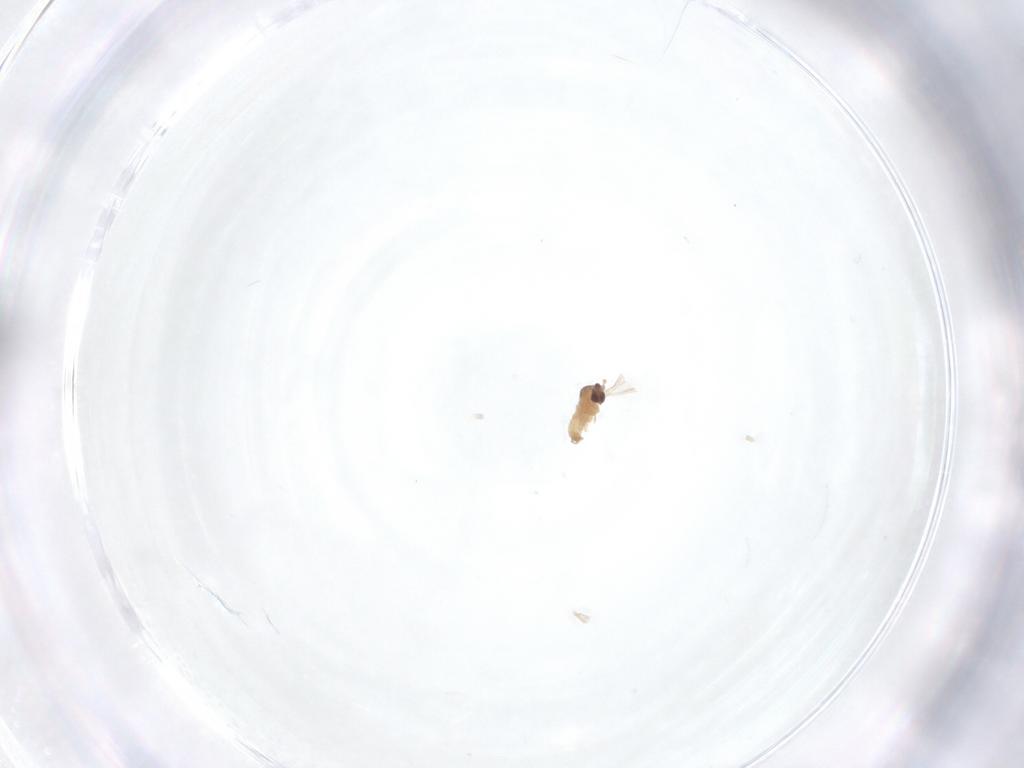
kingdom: Animalia
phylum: Arthropoda
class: Insecta
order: Diptera
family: Cecidomyiidae
